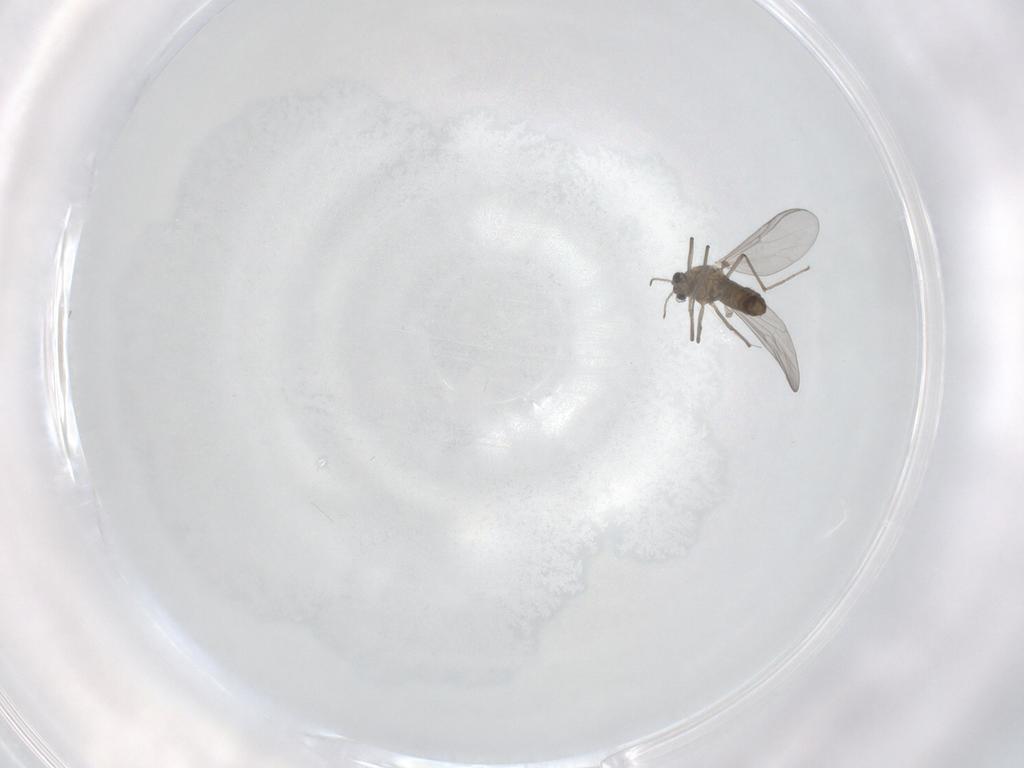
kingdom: Animalia
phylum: Arthropoda
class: Insecta
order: Diptera
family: Chironomidae
